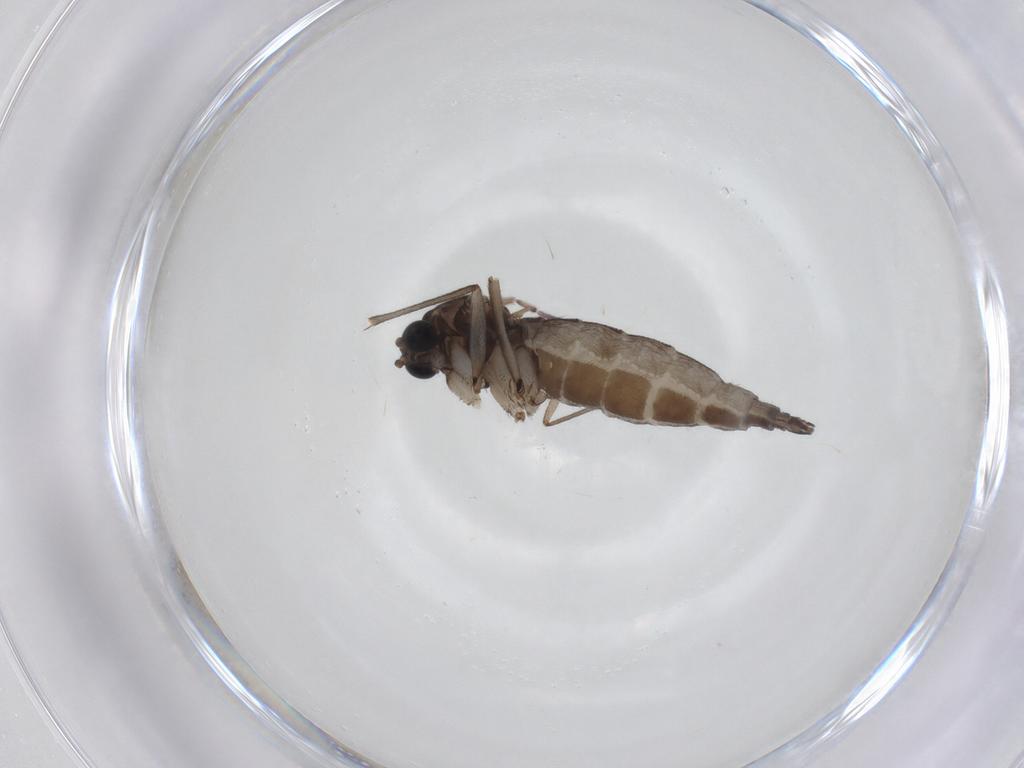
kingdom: Animalia
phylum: Arthropoda
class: Insecta
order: Diptera
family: Sciaridae
